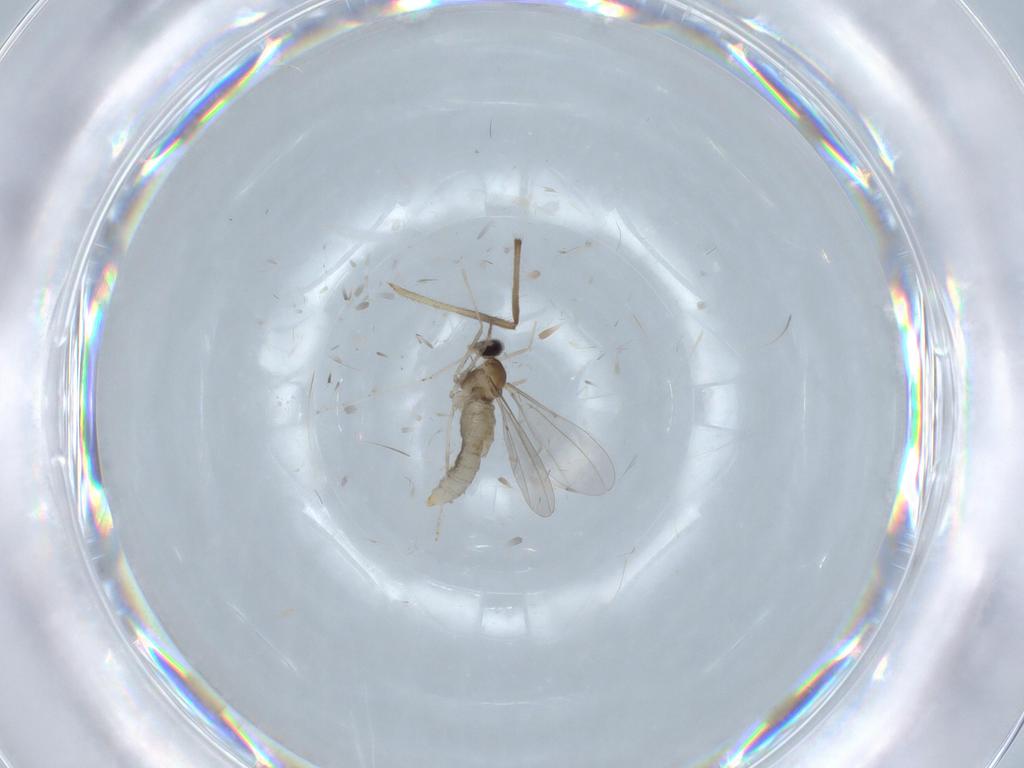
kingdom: Animalia
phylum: Arthropoda
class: Insecta
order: Diptera
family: Chironomidae
